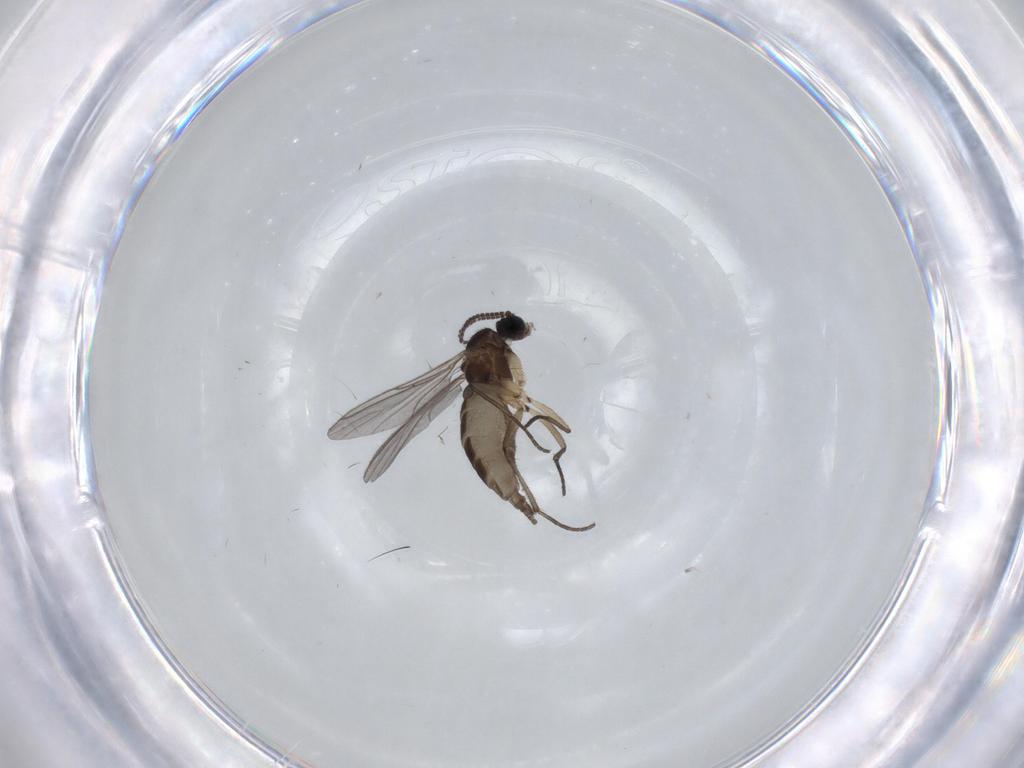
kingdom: Animalia
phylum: Arthropoda
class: Insecta
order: Diptera
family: Sciaridae
